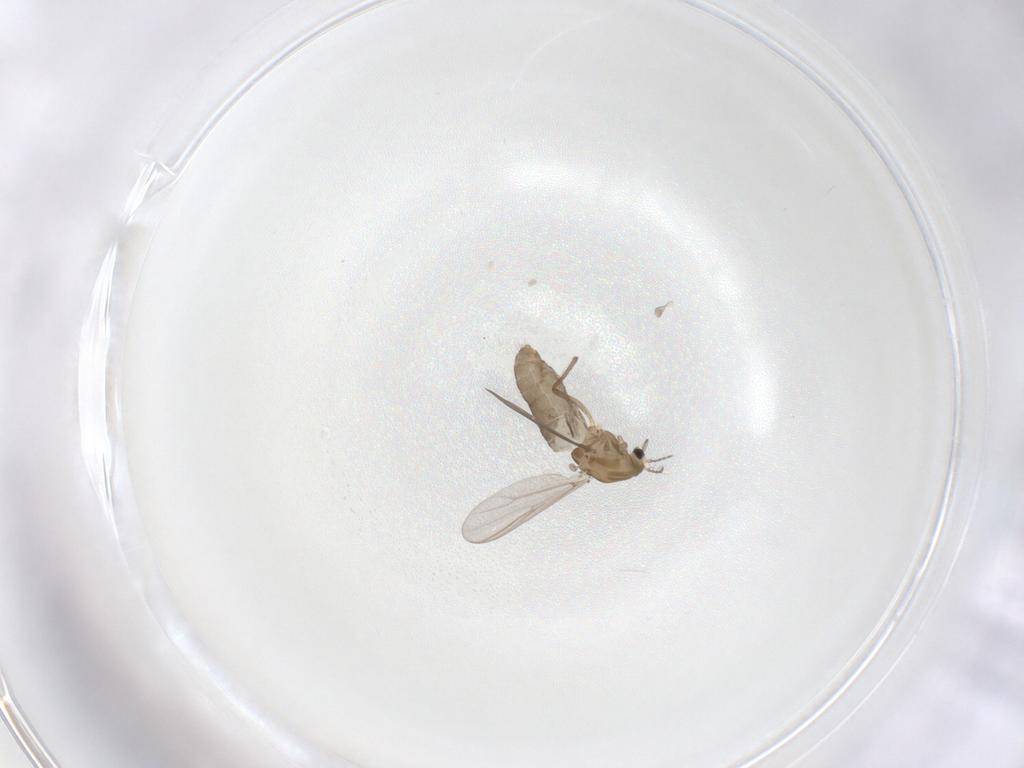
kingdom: Animalia
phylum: Arthropoda
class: Insecta
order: Diptera
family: Chironomidae
